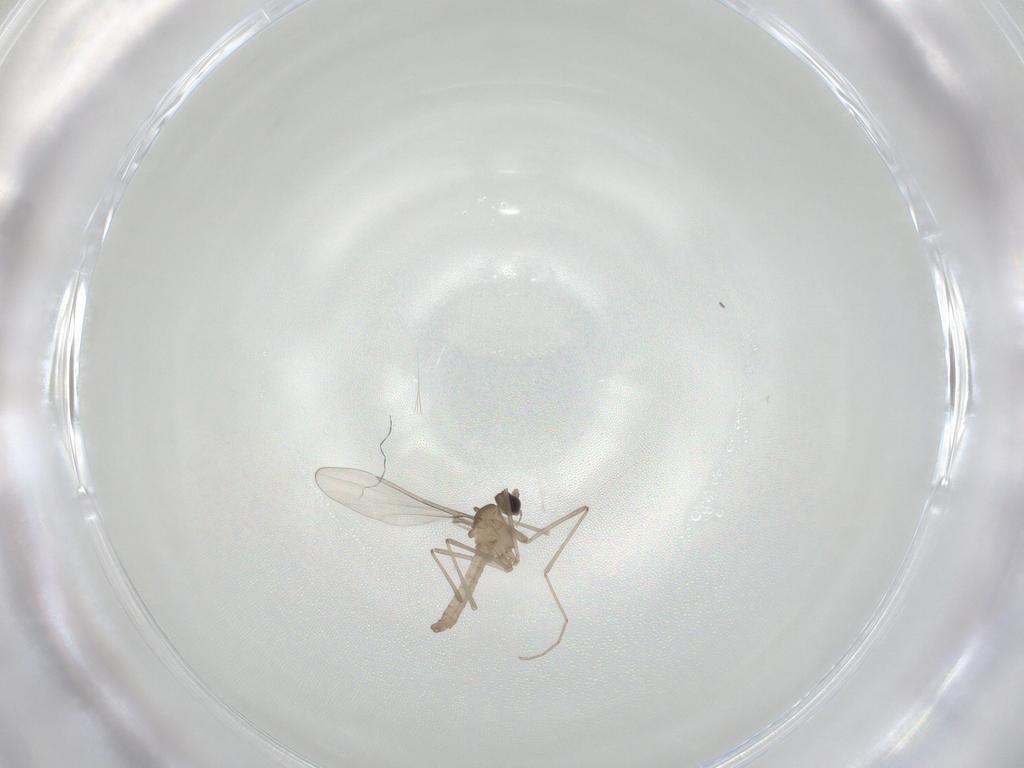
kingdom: Animalia
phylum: Arthropoda
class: Insecta
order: Diptera
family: Cecidomyiidae
